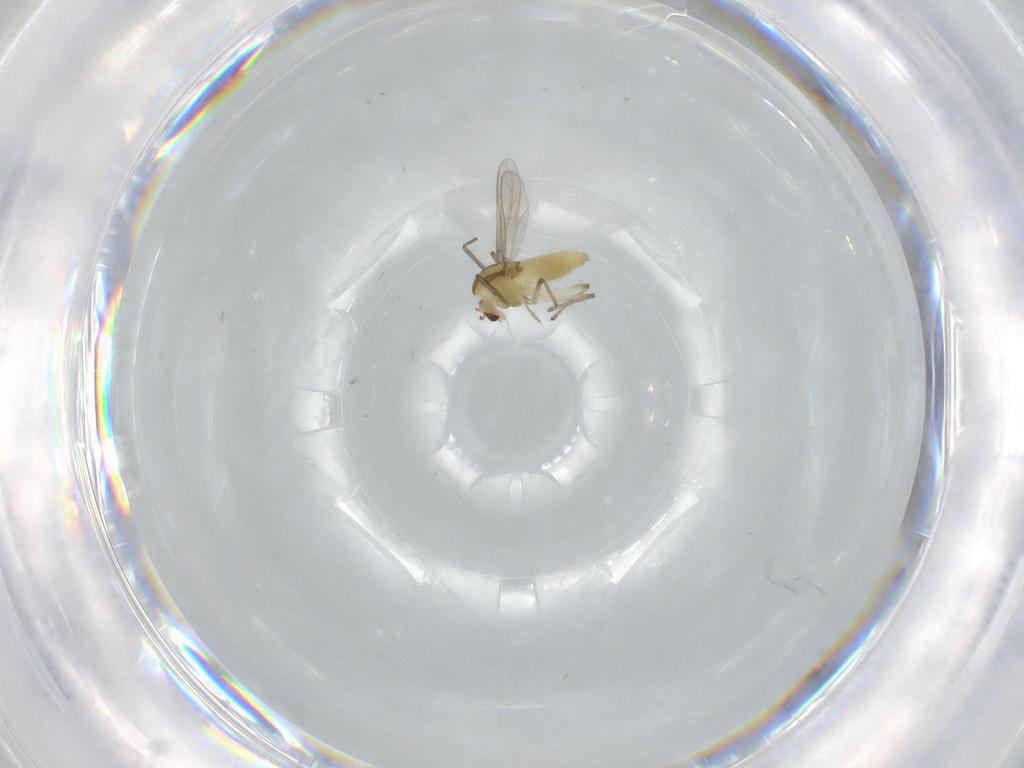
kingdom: Animalia
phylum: Arthropoda
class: Insecta
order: Diptera
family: Chironomidae
